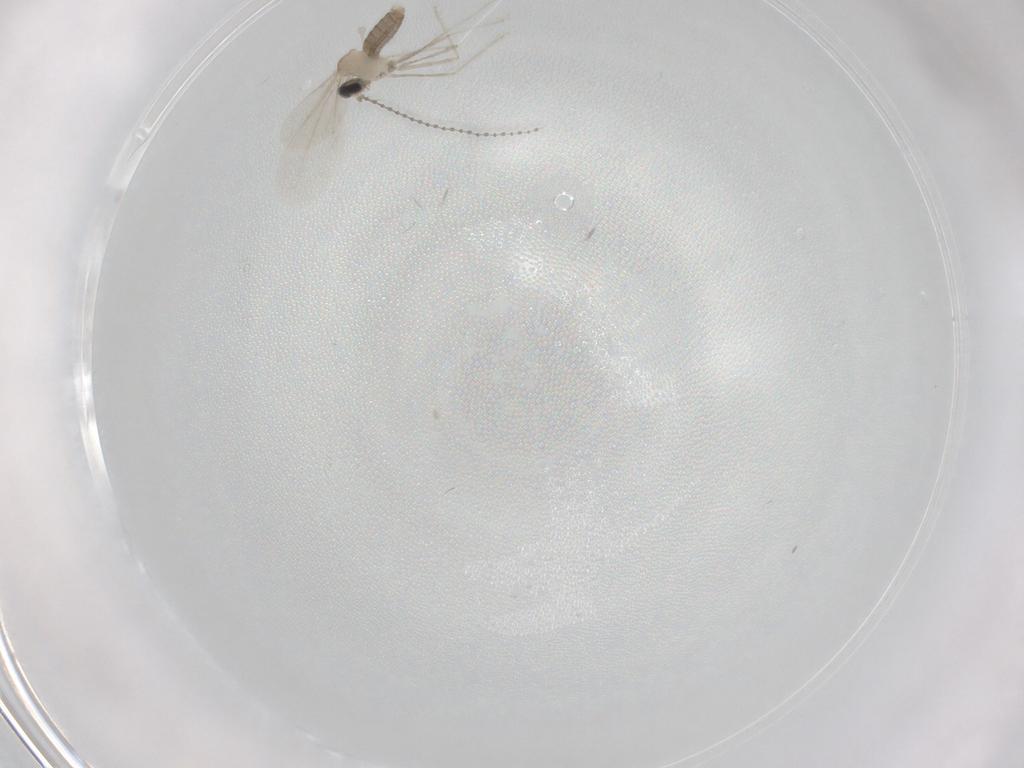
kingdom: Animalia
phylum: Arthropoda
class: Insecta
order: Diptera
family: Cecidomyiidae
